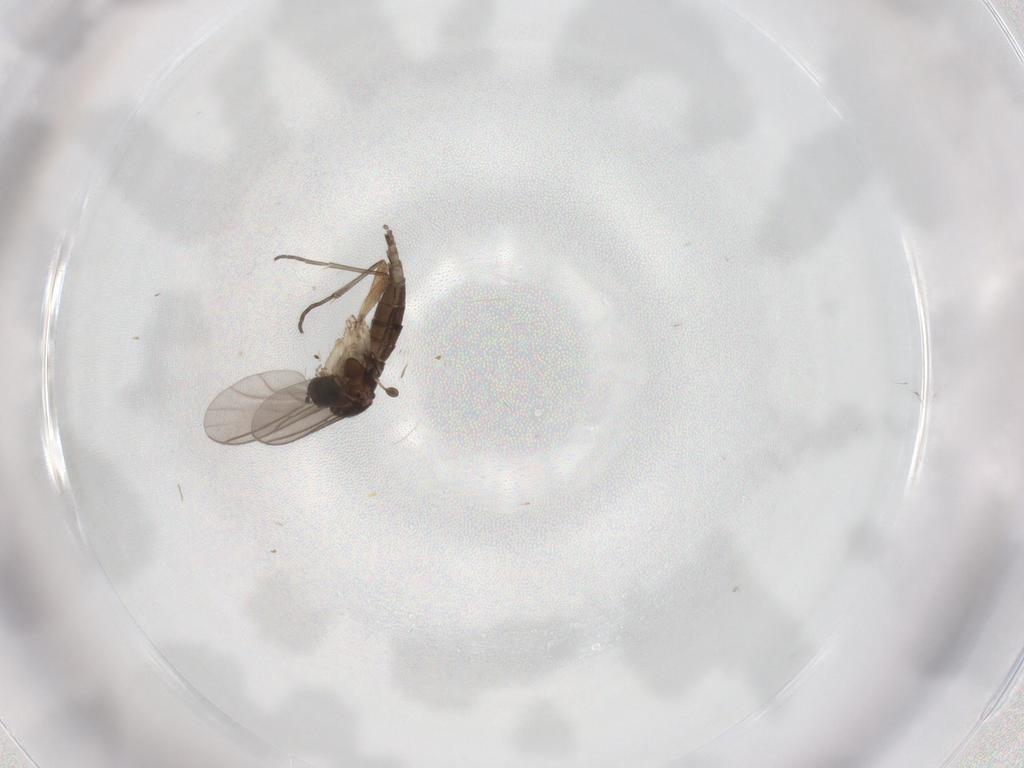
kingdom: Animalia
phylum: Arthropoda
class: Insecta
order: Diptera
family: Sciaridae
